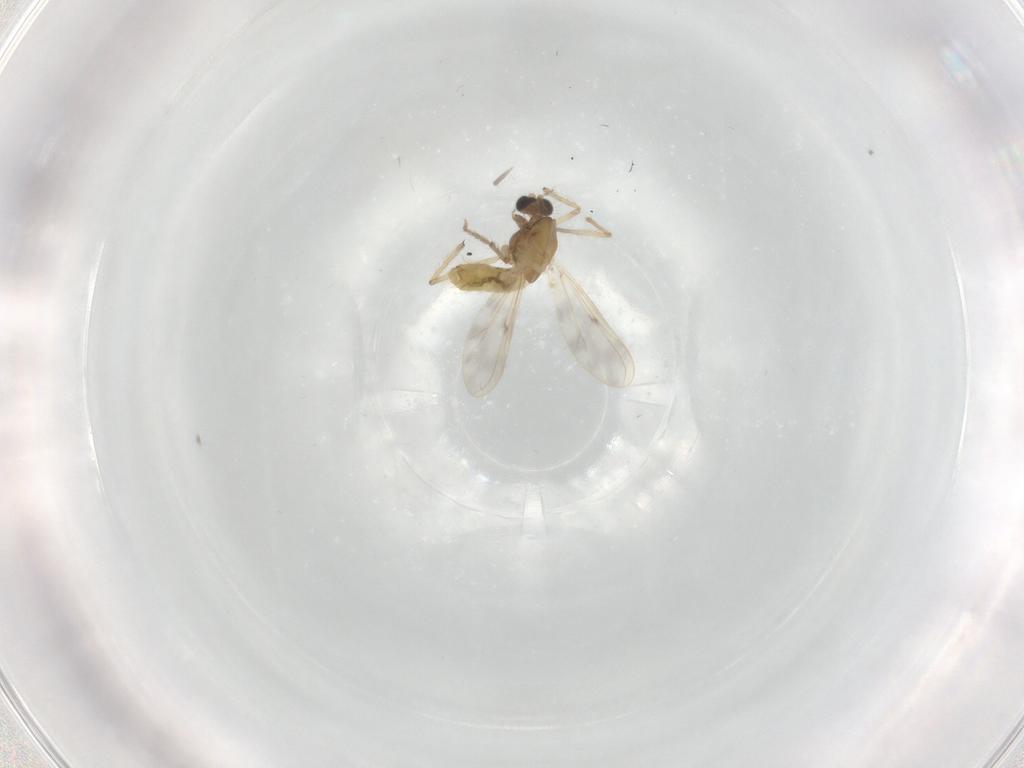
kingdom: Animalia
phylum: Arthropoda
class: Insecta
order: Diptera
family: Chironomidae
